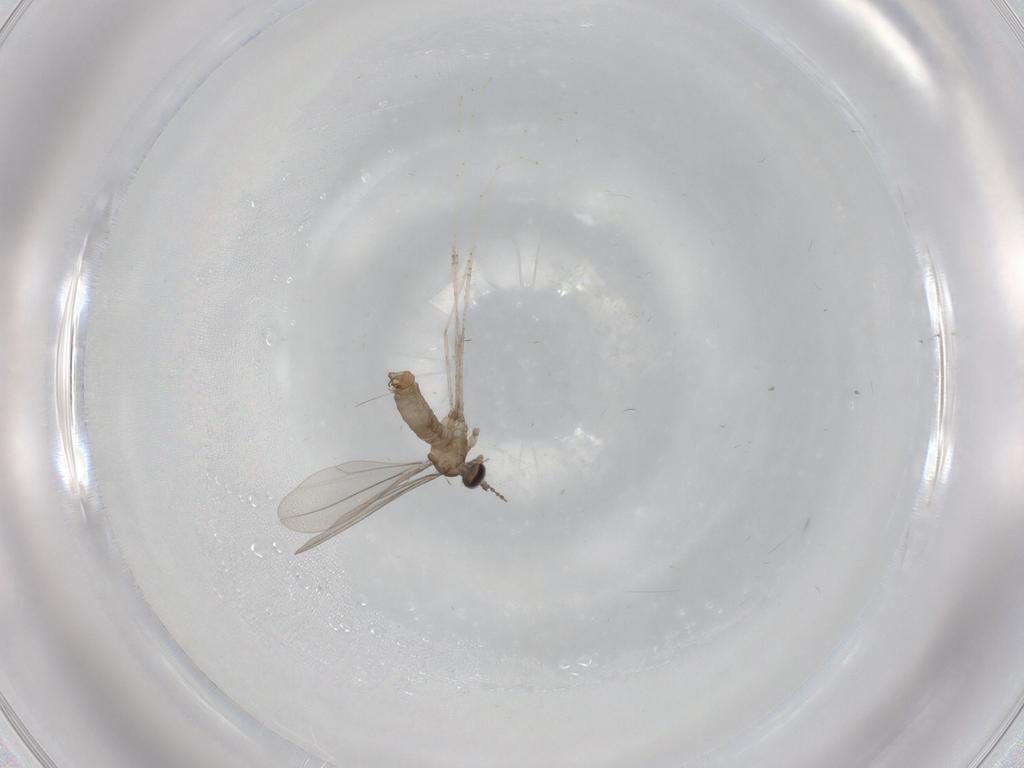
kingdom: Animalia
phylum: Arthropoda
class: Insecta
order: Diptera
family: Cecidomyiidae
